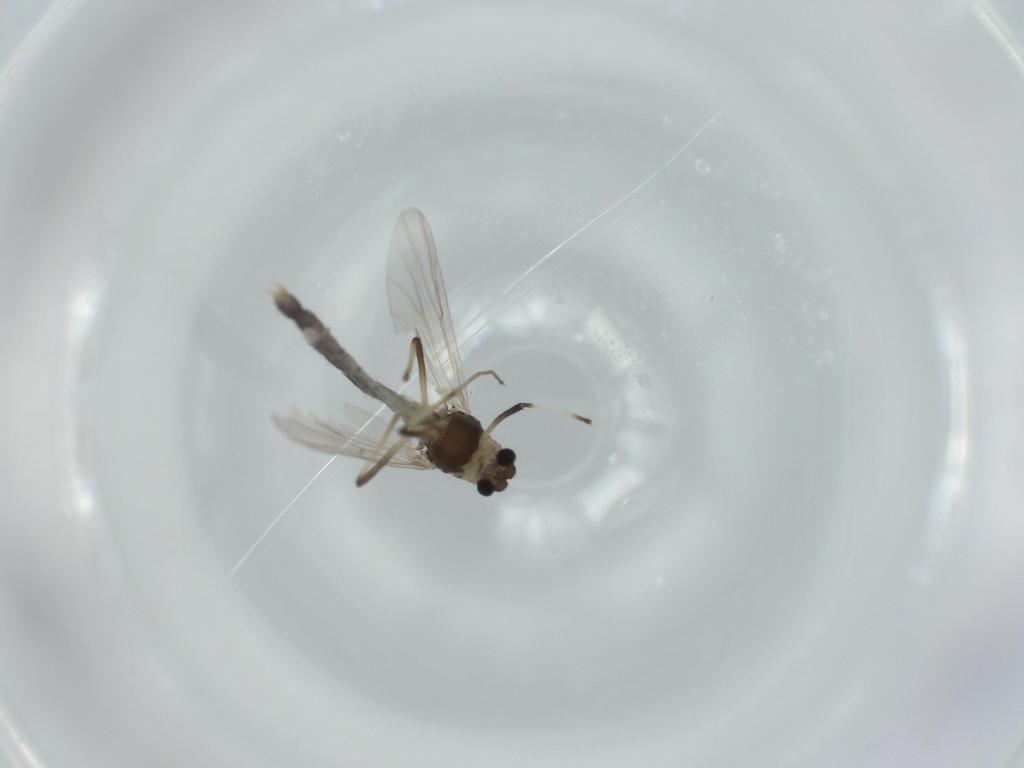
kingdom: Animalia
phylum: Arthropoda
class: Insecta
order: Diptera
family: Chironomidae
